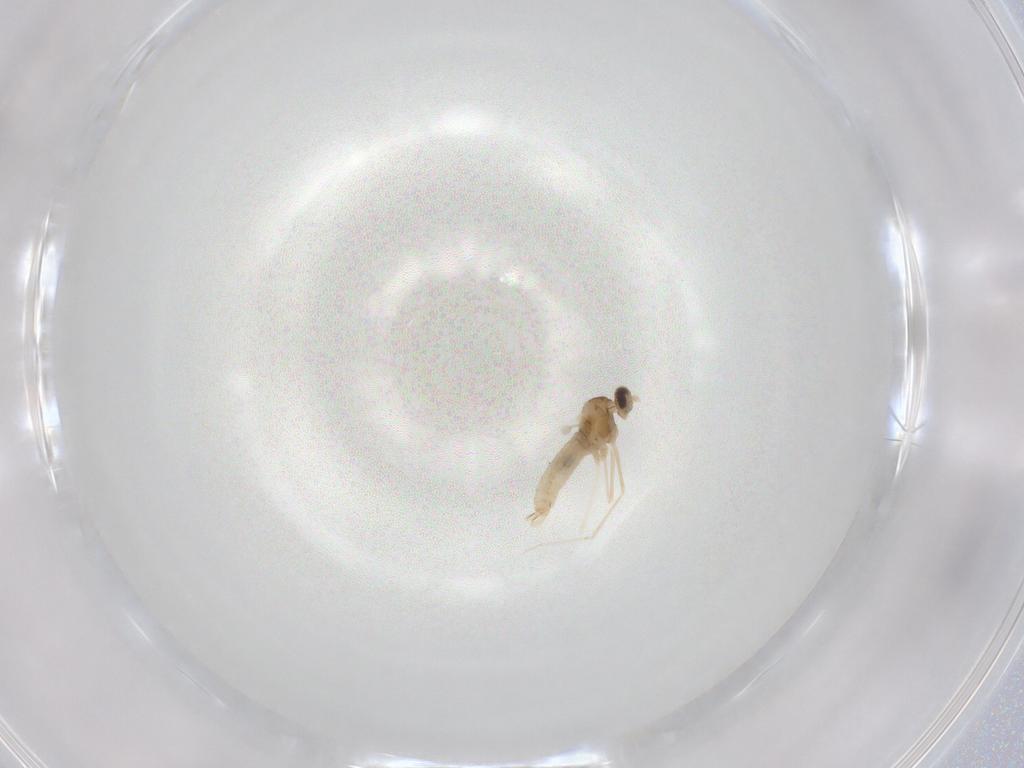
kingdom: Animalia
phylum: Arthropoda
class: Insecta
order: Diptera
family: Cecidomyiidae
